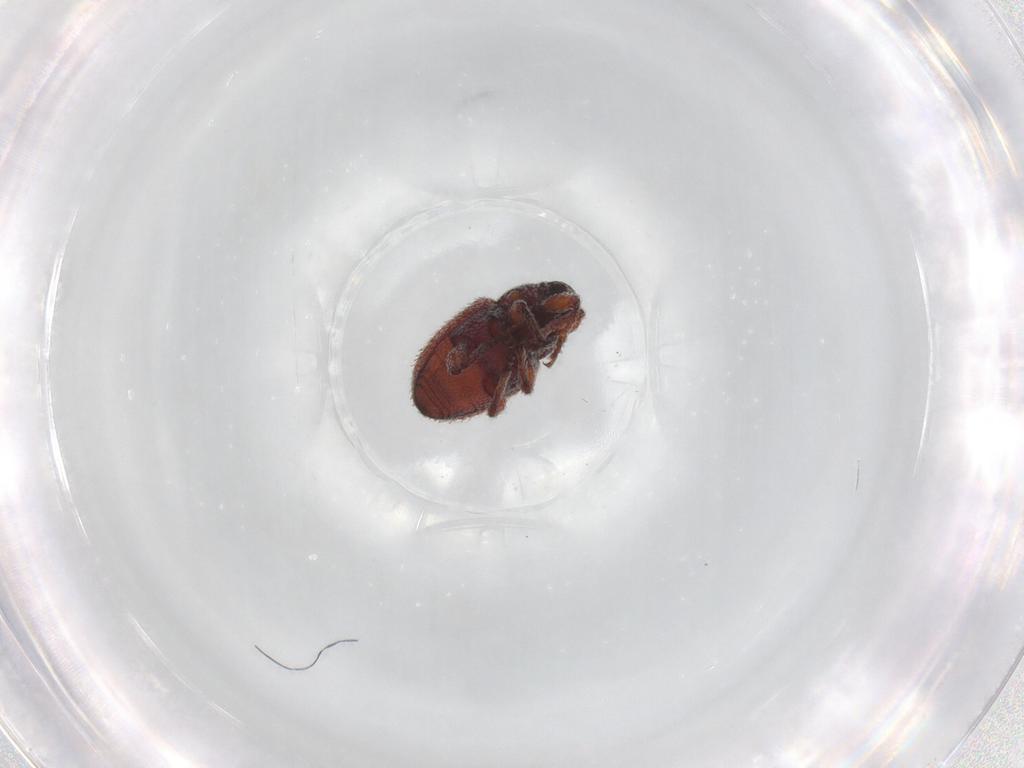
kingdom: Animalia
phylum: Arthropoda
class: Insecta
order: Coleoptera
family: Curculionidae
